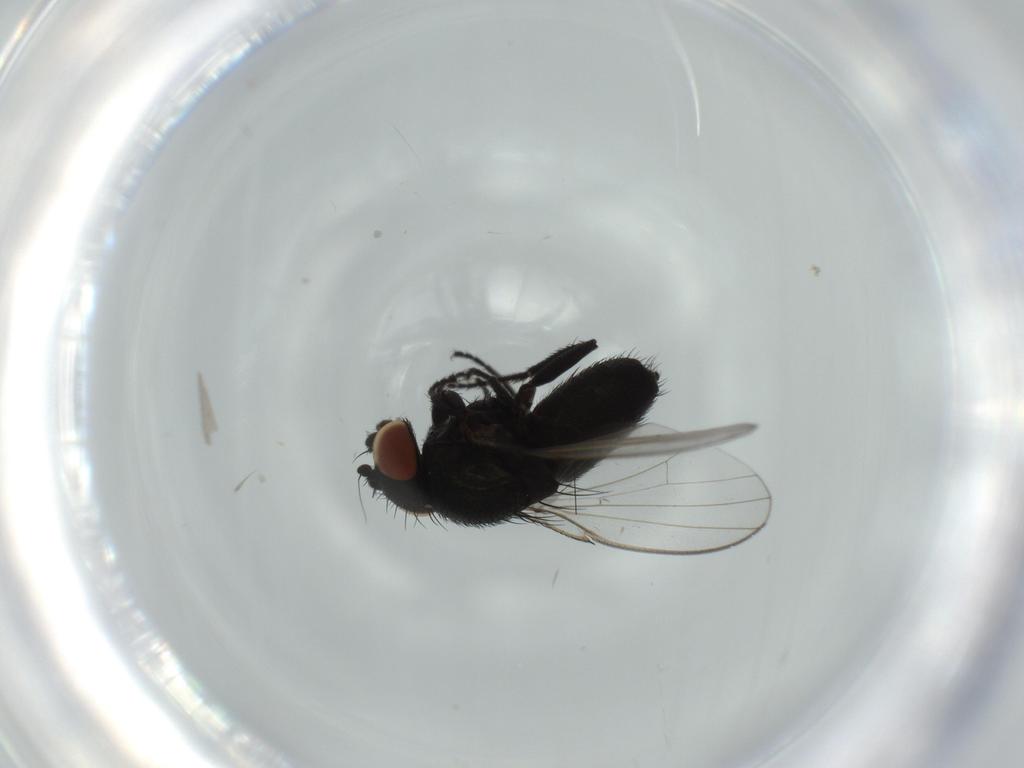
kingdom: Animalia
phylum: Arthropoda
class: Insecta
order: Diptera
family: Milichiidae
